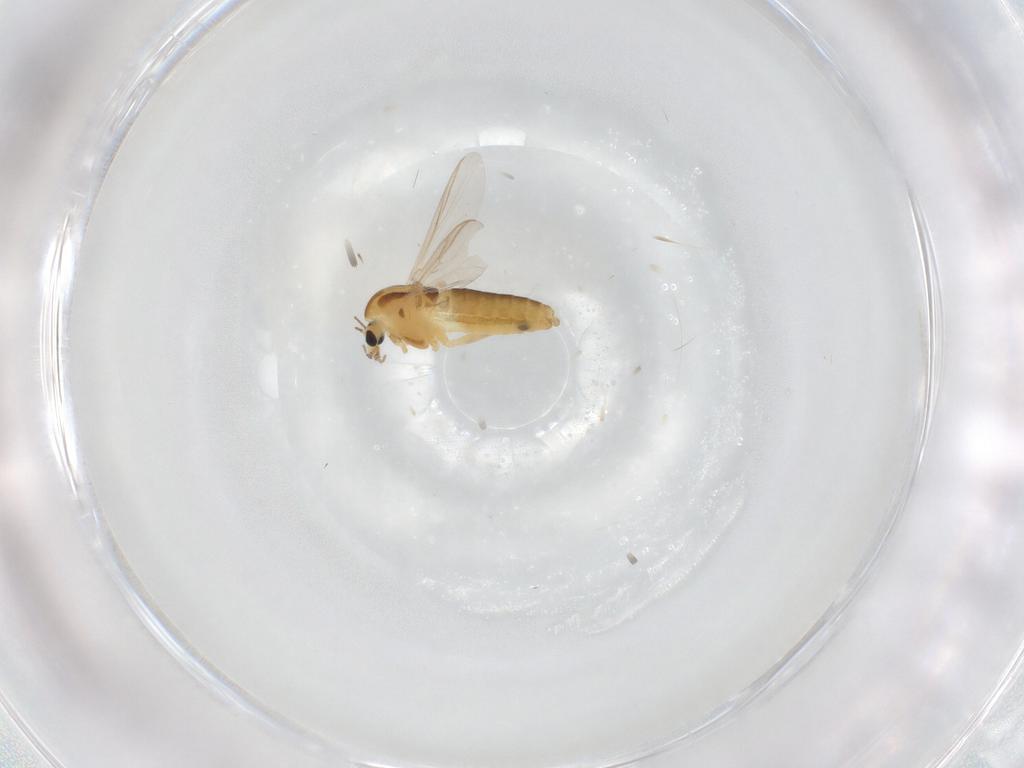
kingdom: Animalia
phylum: Arthropoda
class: Insecta
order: Diptera
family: Chironomidae
